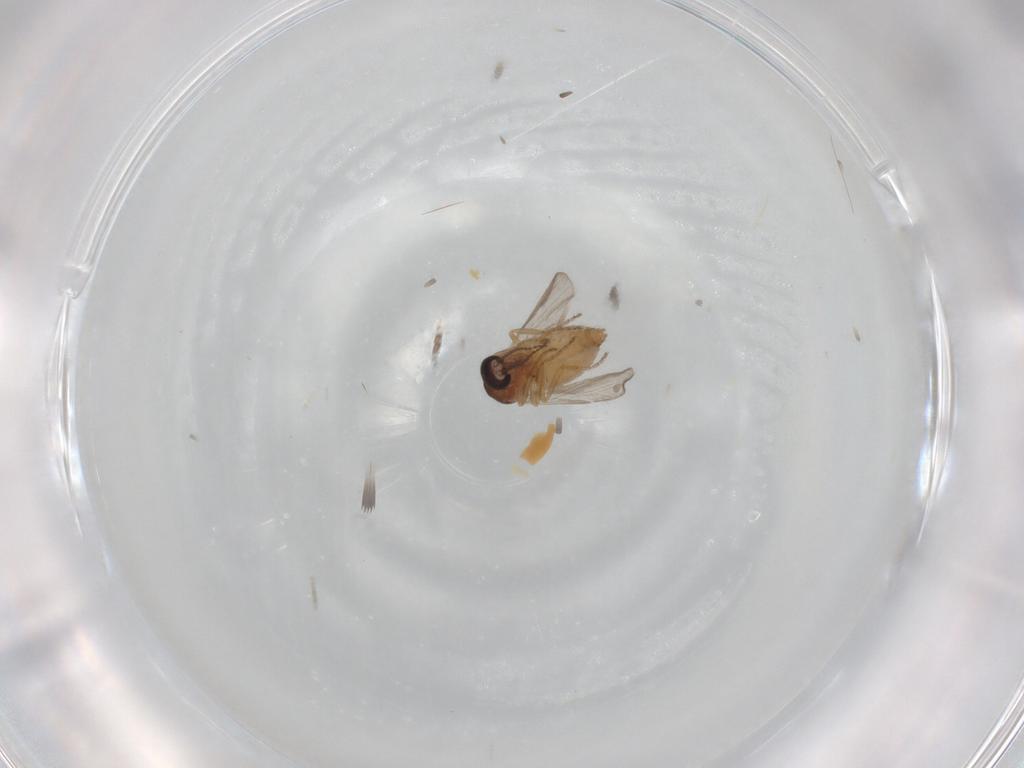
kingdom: Animalia
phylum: Arthropoda
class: Insecta
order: Diptera
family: Ceratopogonidae
